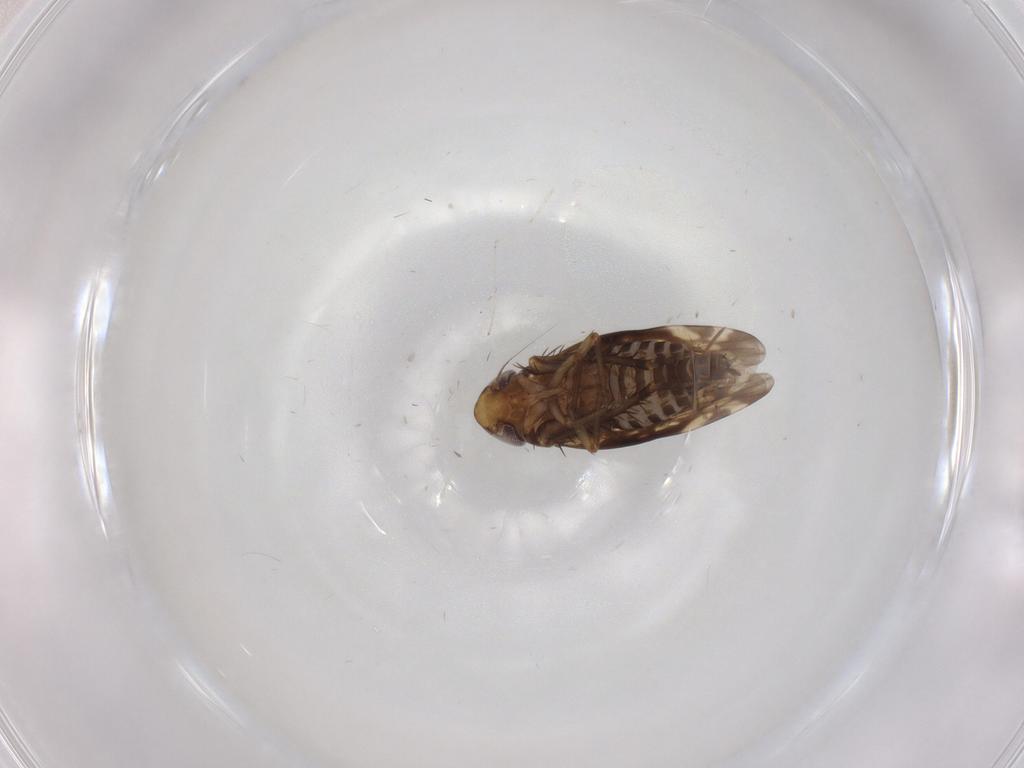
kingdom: Animalia
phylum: Arthropoda
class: Insecta
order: Hemiptera
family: Cicadellidae
